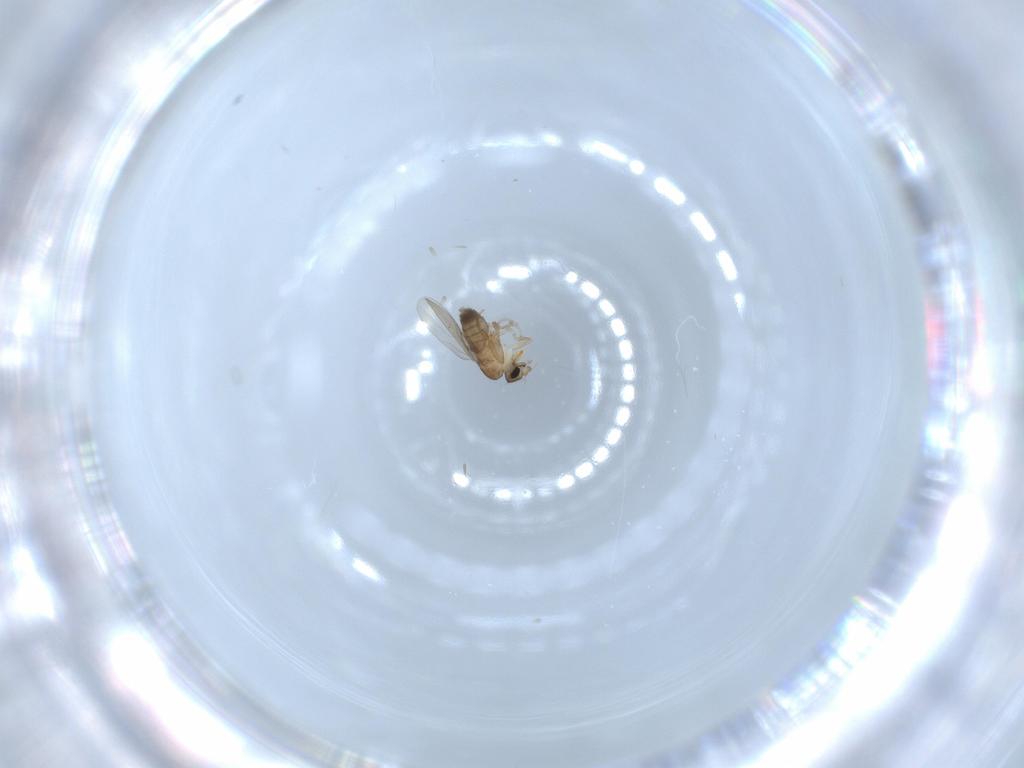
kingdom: Animalia
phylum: Arthropoda
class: Insecta
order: Diptera
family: Phoridae
